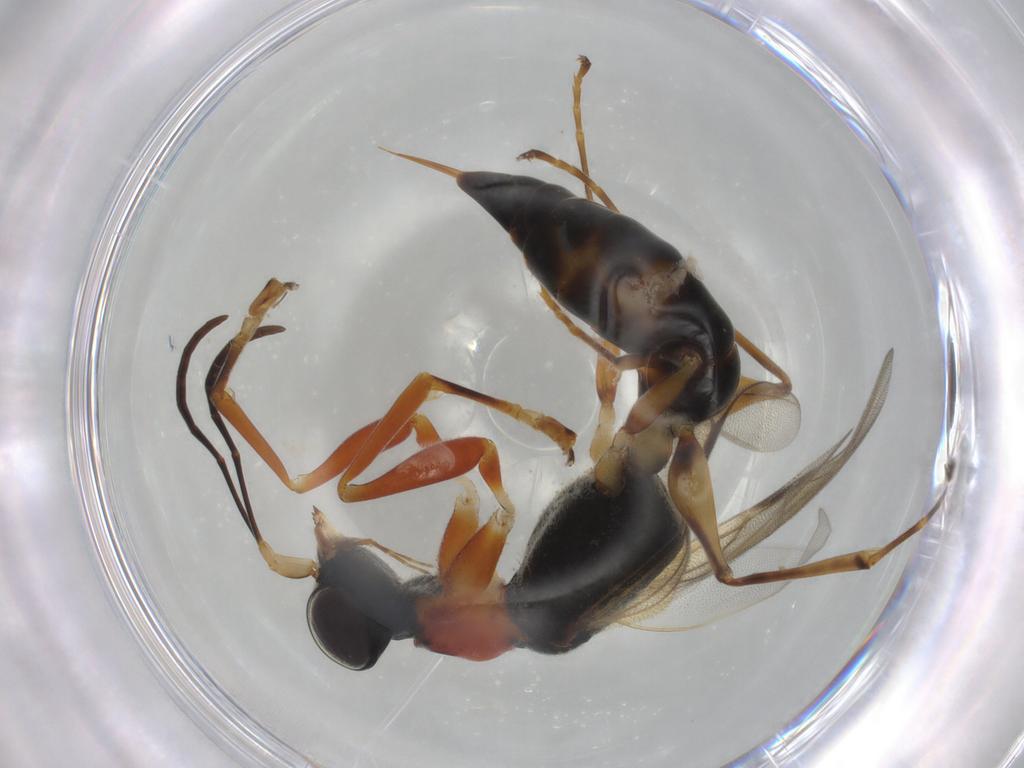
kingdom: Animalia
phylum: Arthropoda
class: Insecta
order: Hymenoptera
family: Dryinidae
